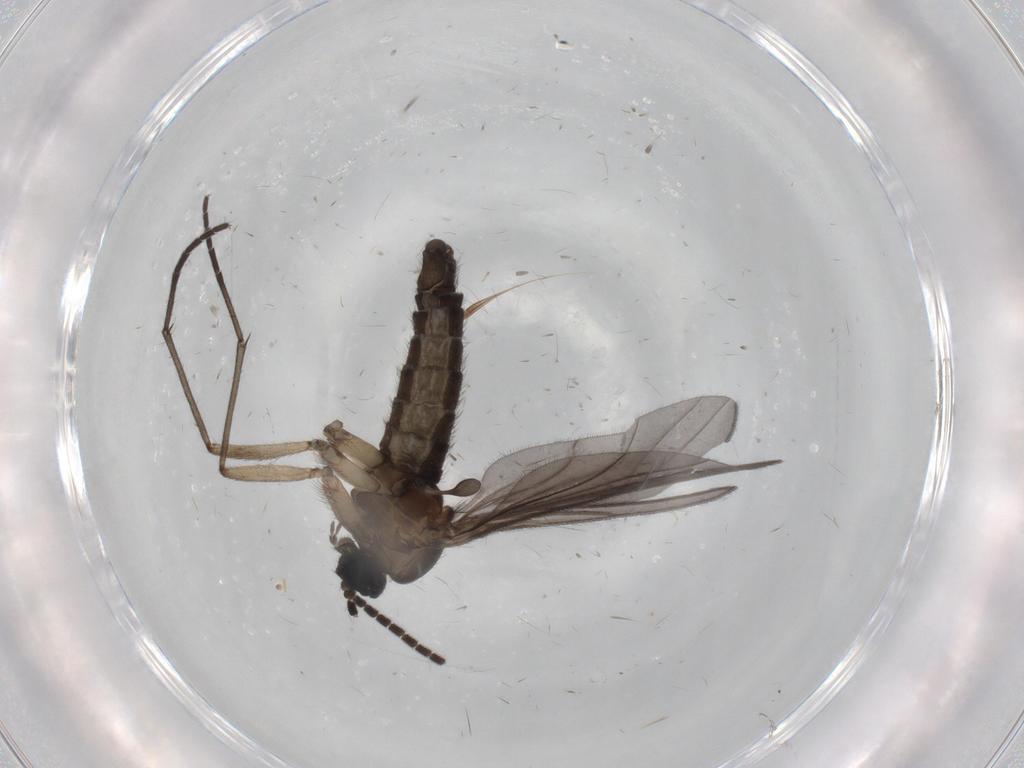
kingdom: Animalia
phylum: Arthropoda
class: Insecta
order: Diptera
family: Sciaridae
